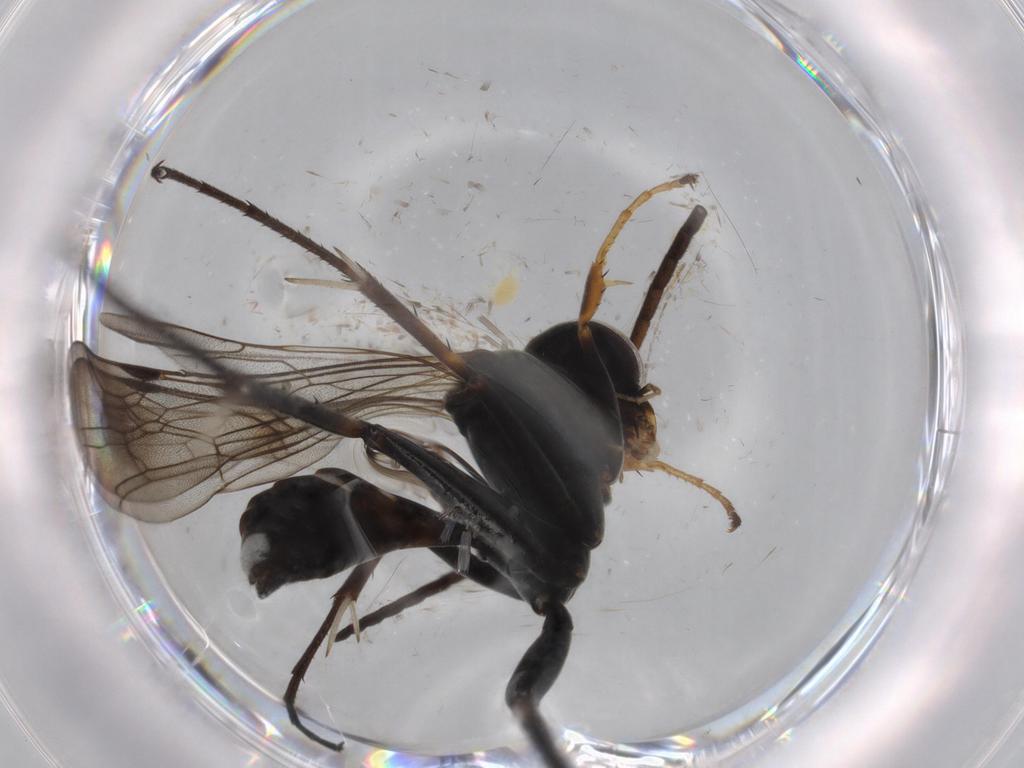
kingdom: Animalia
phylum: Arthropoda
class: Insecta
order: Hymenoptera
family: Pompilidae
